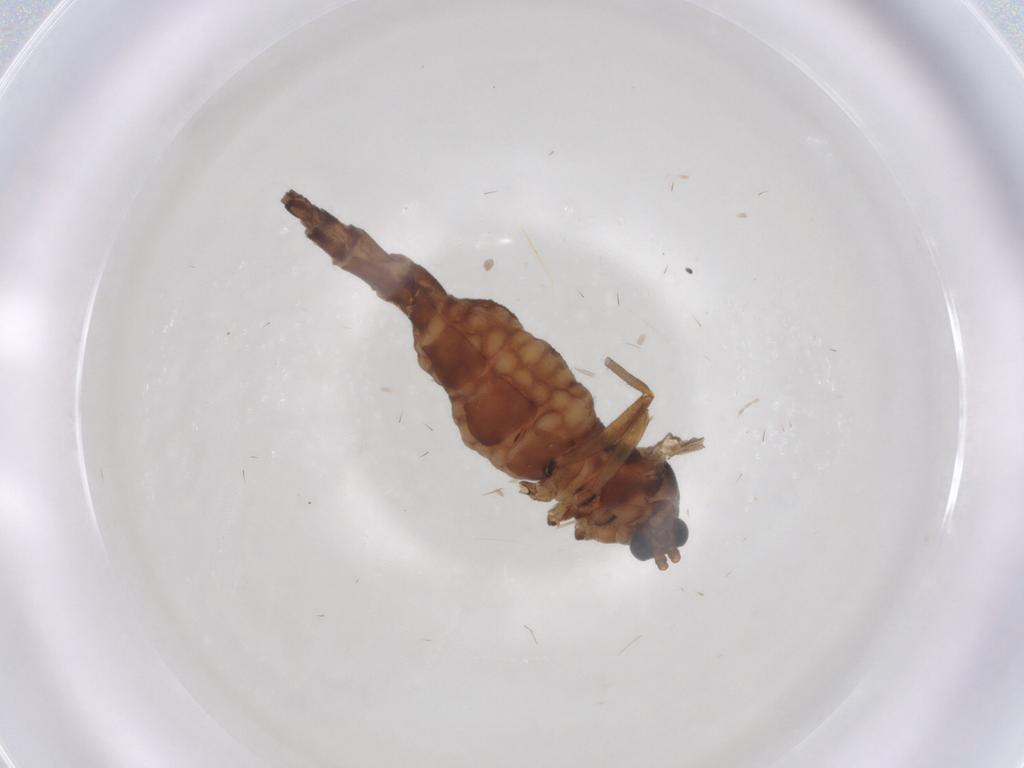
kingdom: Animalia
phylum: Arthropoda
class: Insecta
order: Diptera
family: Sciaridae
